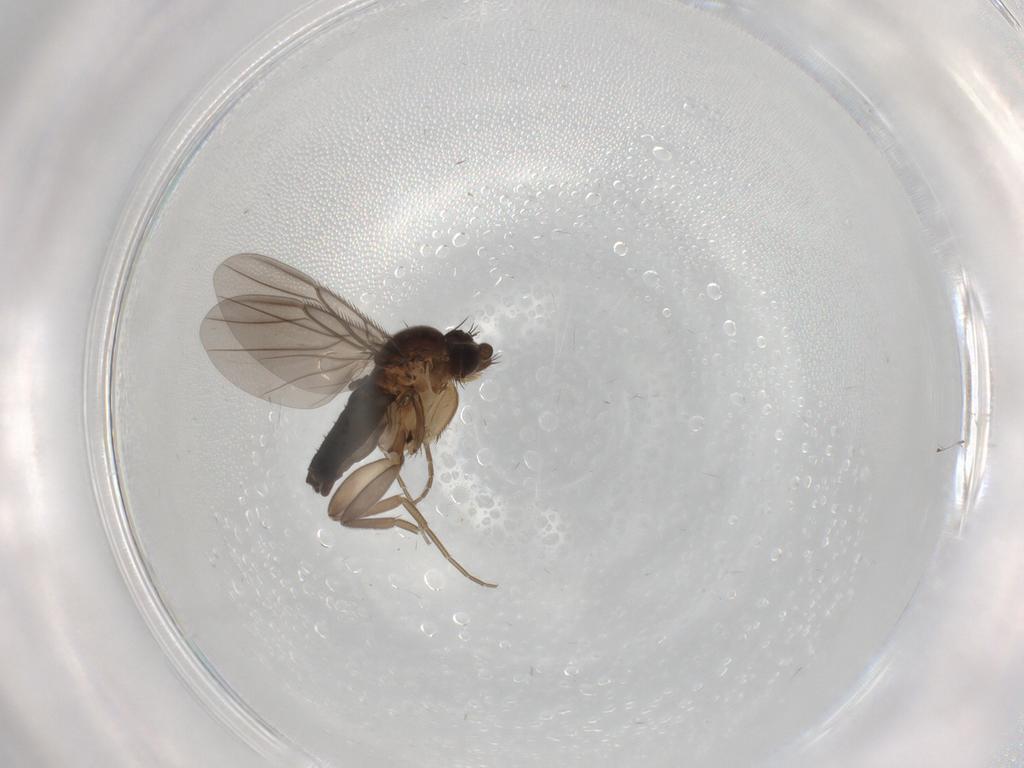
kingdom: Animalia
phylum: Arthropoda
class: Insecta
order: Diptera
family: Phoridae
